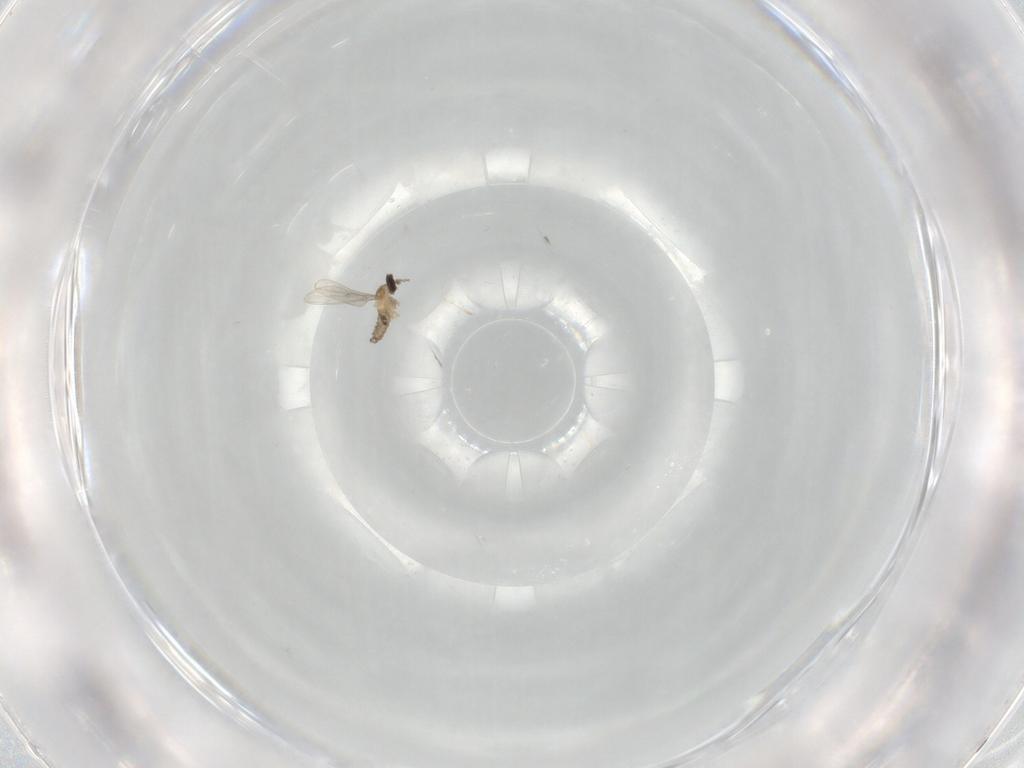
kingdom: Animalia
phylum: Arthropoda
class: Insecta
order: Diptera
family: Cecidomyiidae
